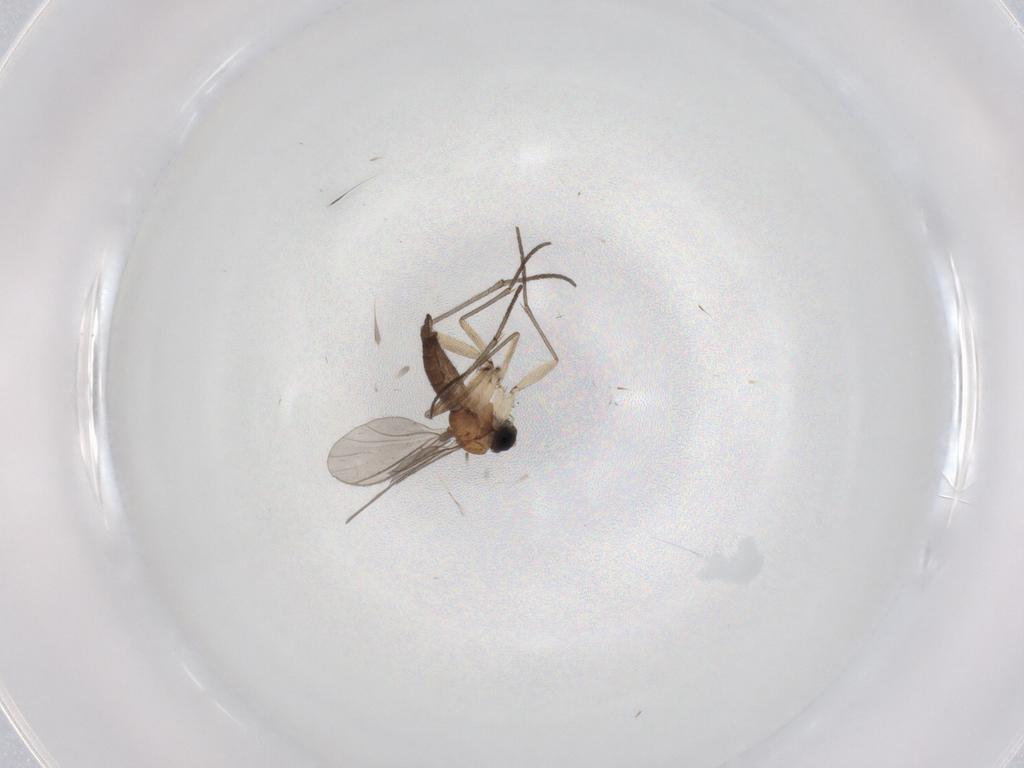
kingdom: Animalia
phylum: Arthropoda
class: Insecta
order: Diptera
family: Sciaridae
